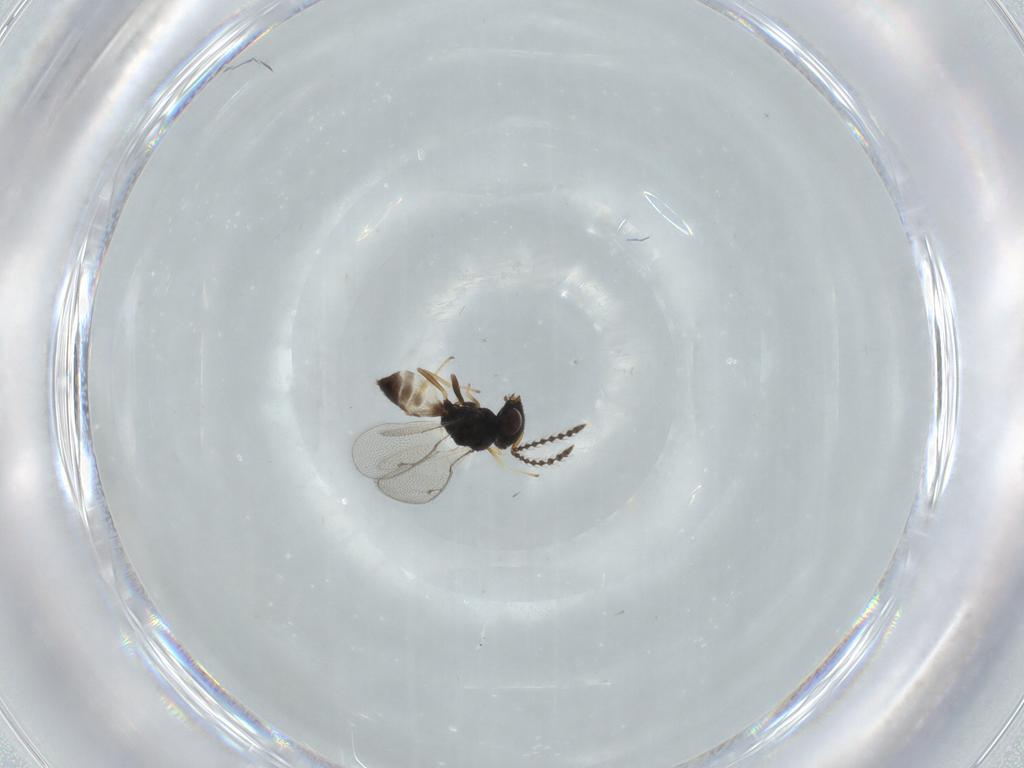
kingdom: Animalia
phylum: Arthropoda
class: Insecta
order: Hymenoptera
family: Pteromalidae
